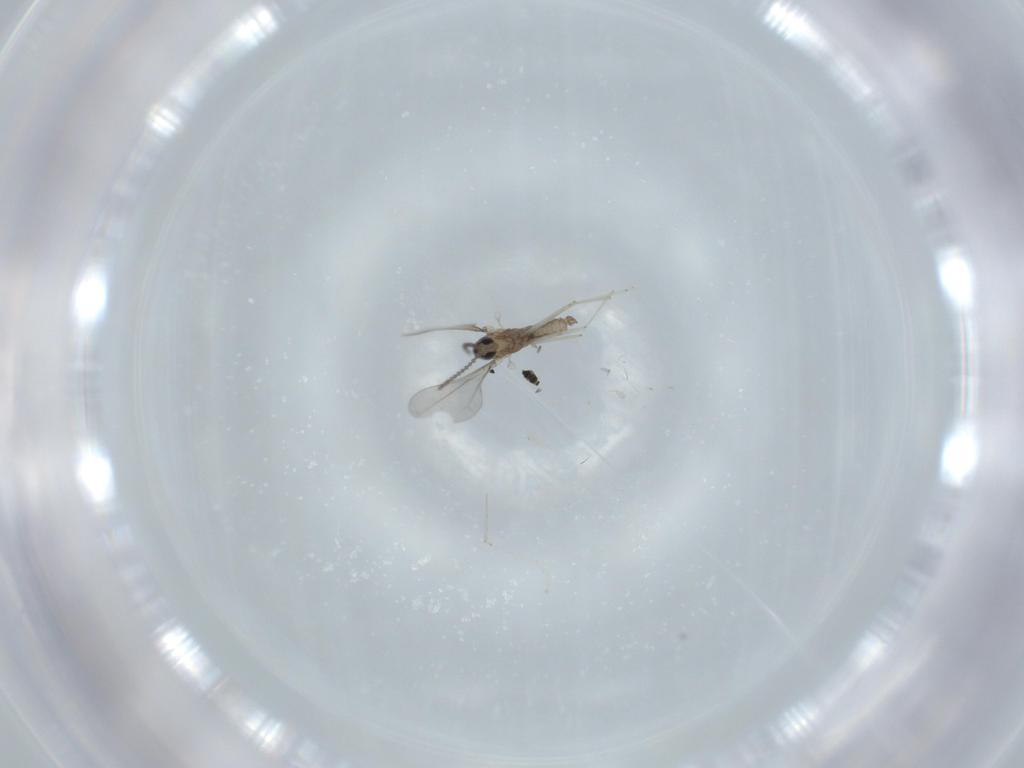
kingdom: Animalia
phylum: Arthropoda
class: Insecta
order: Diptera
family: Cecidomyiidae
